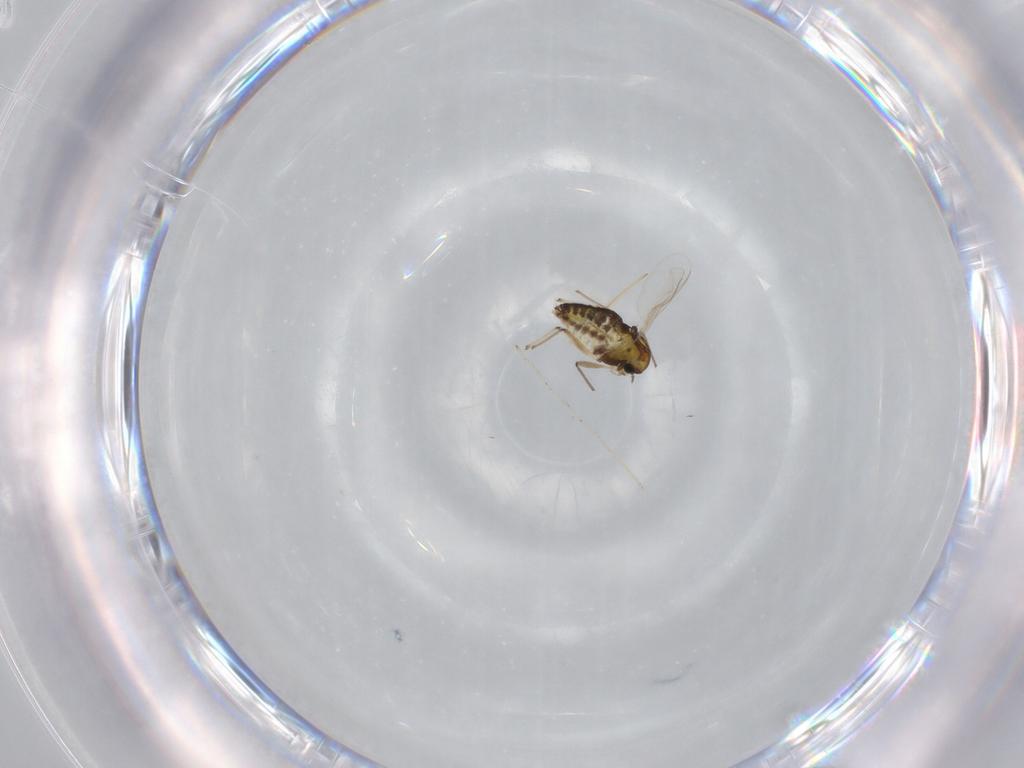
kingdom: Animalia
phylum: Arthropoda
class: Insecta
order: Diptera
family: Chironomidae
